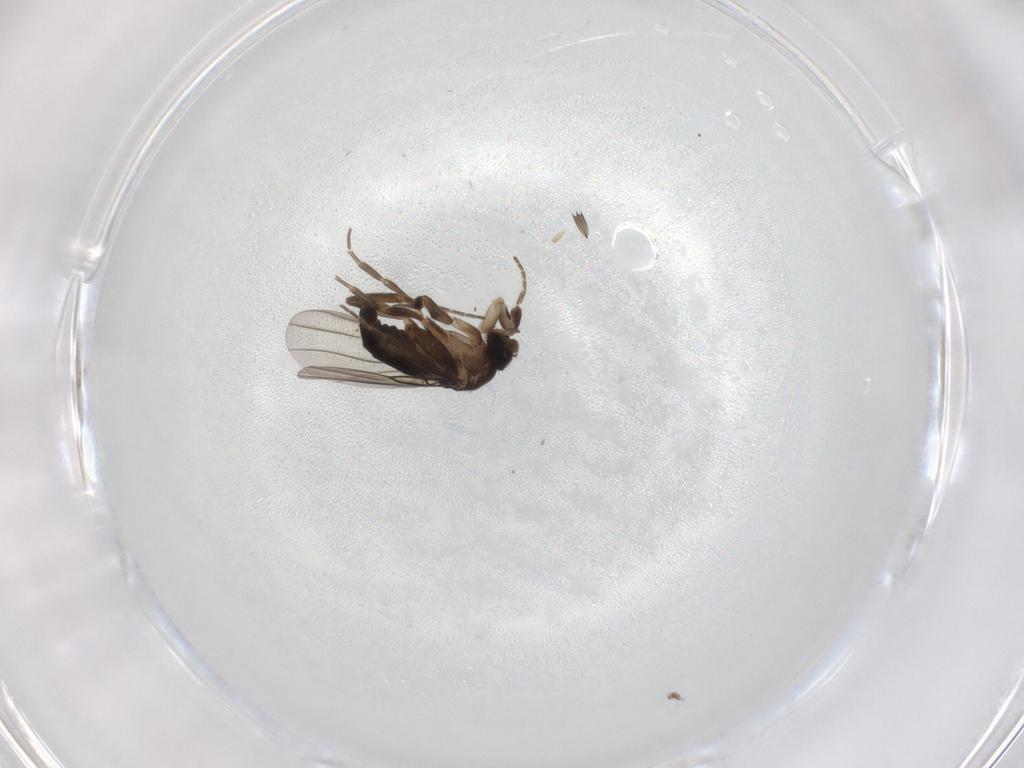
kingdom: Animalia
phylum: Arthropoda
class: Insecta
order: Diptera
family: Phoridae
